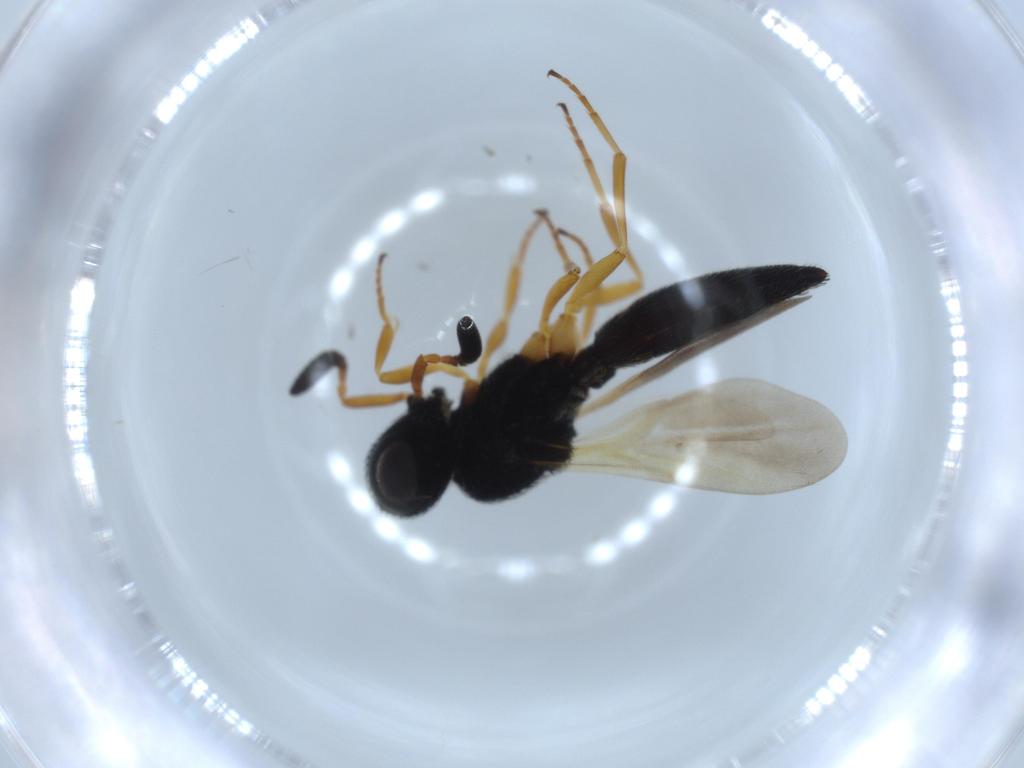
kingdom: Animalia
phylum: Arthropoda
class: Insecta
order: Hymenoptera
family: Scelionidae
